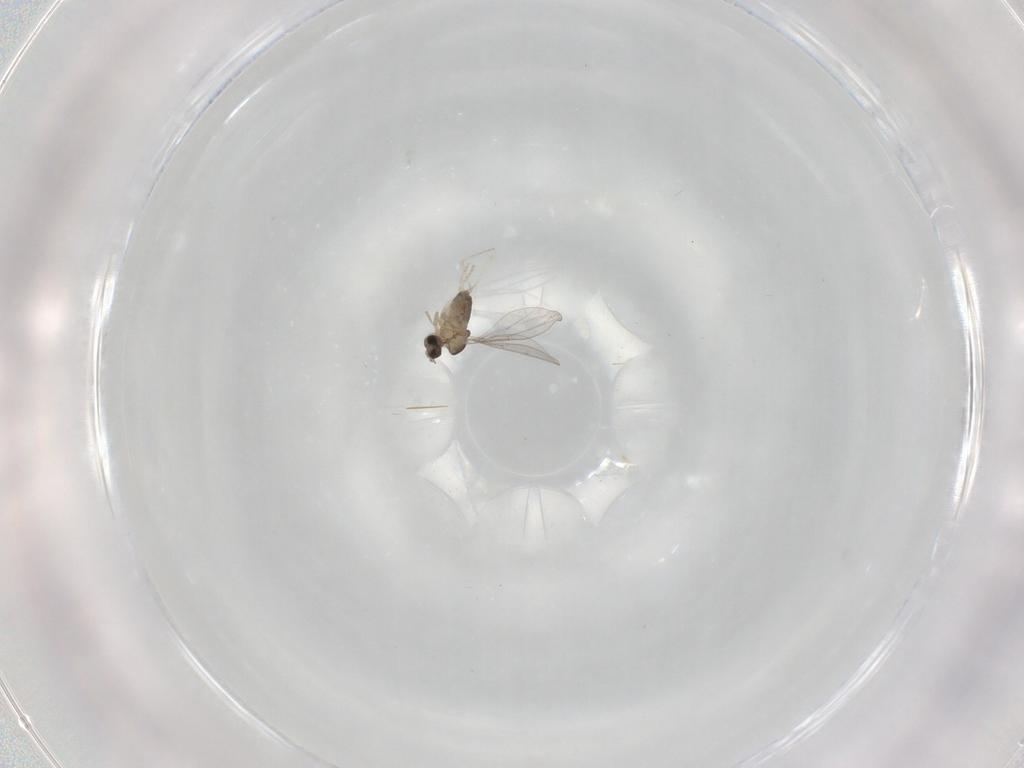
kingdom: Animalia
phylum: Arthropoda
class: Insecta
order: Diptera
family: Cecidomyiidae
